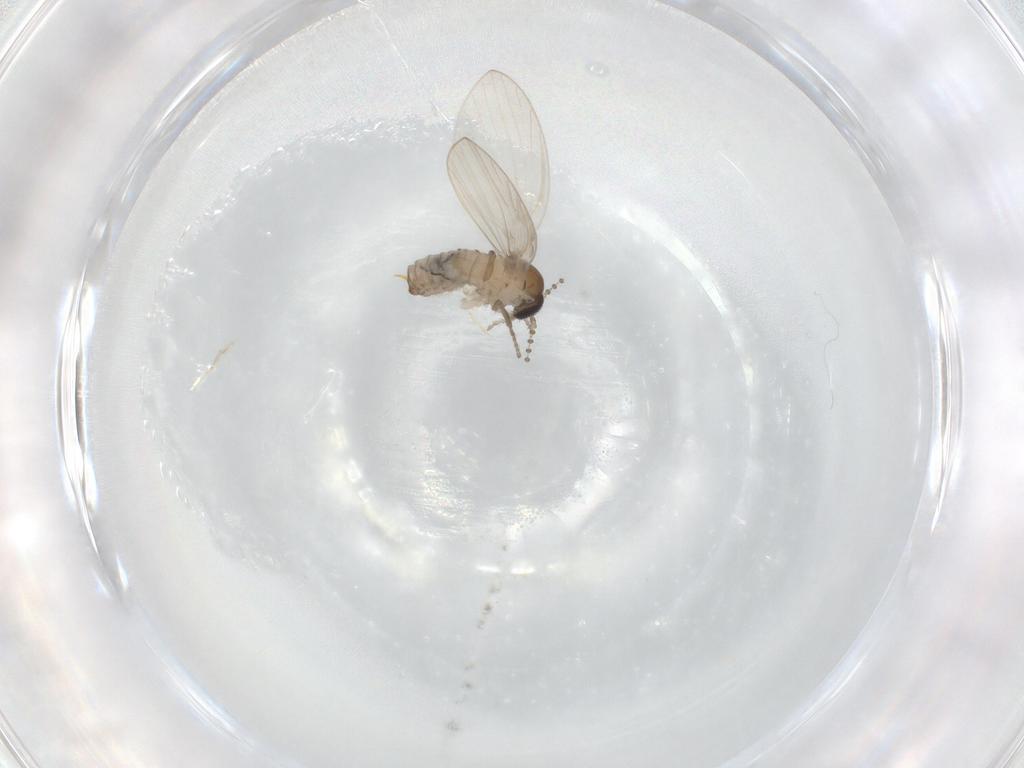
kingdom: Animalia
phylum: Arthropoda
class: Insecta
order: Diptera
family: Psychodidae
